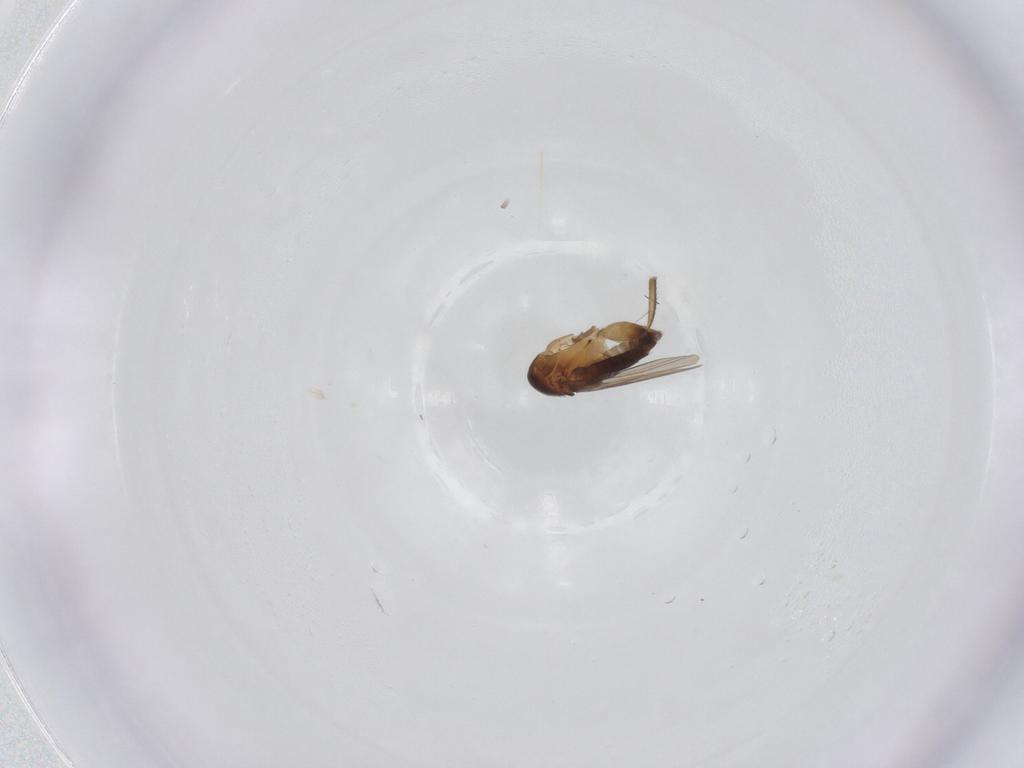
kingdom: Animalia
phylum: Arthropoda
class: Insecta
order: Diptera
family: Phoridae
